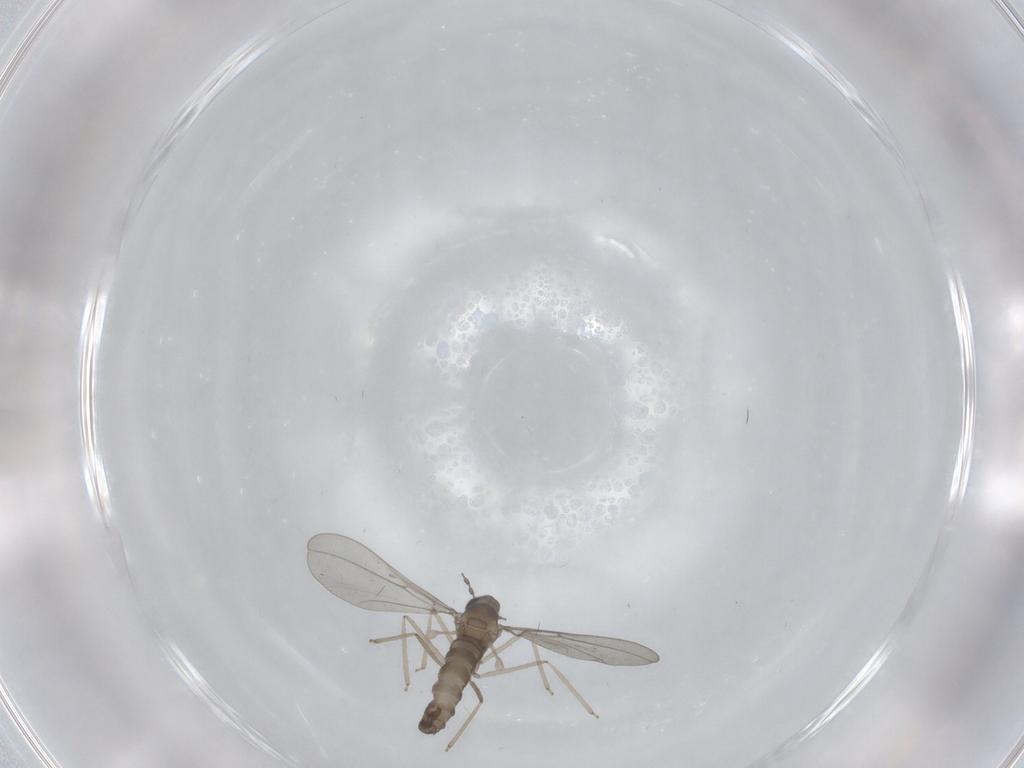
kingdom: Animalia
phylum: Arthropoda
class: Insecta
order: Diptera
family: Cecidomyiidae
